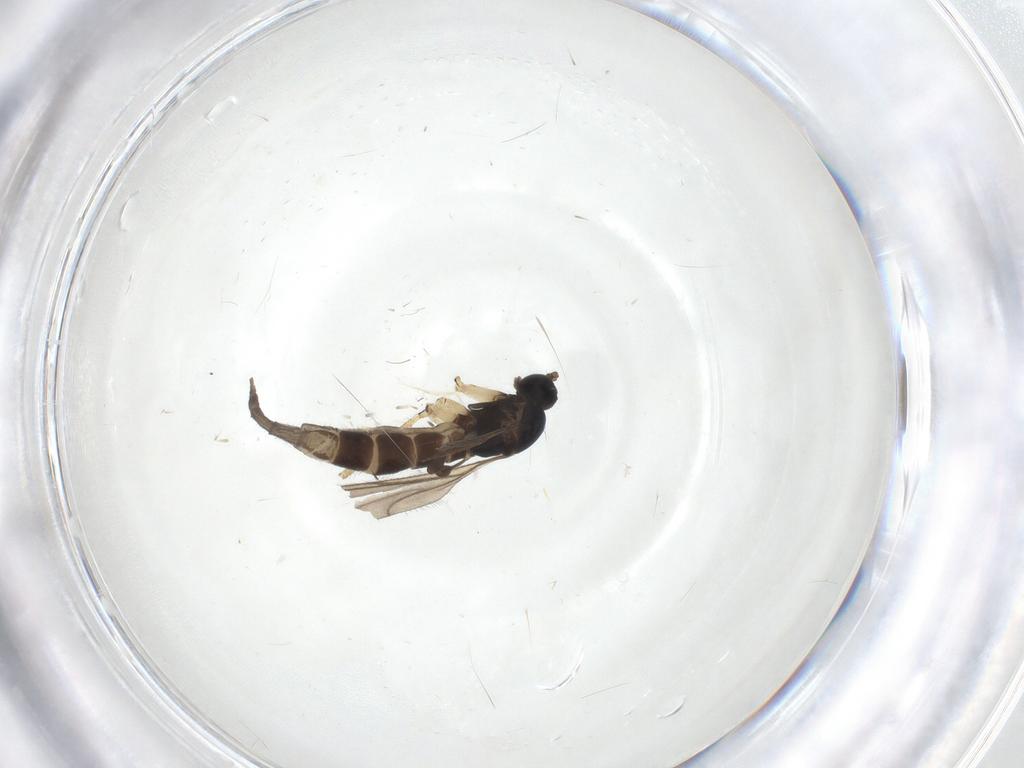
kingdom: Animalia
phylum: Arthropoda
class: Insecta
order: Diptera
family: Sciaridae
